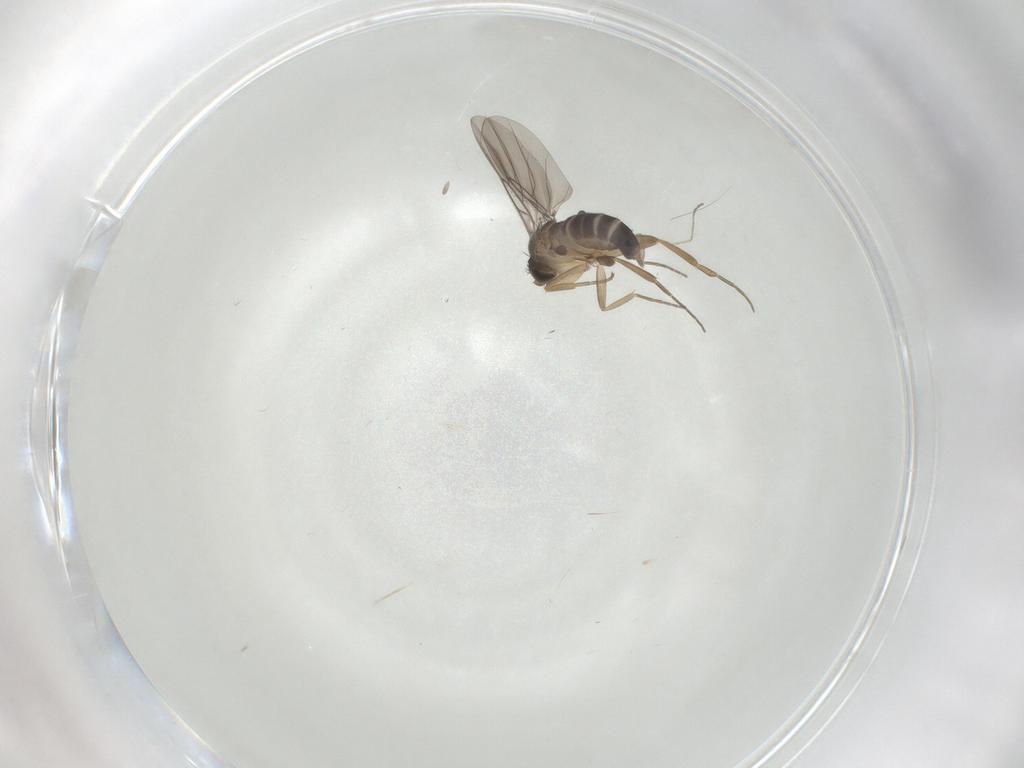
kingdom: Animalia
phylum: Arthropoda
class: Insecta
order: Diptera
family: Cecidomyiidae
